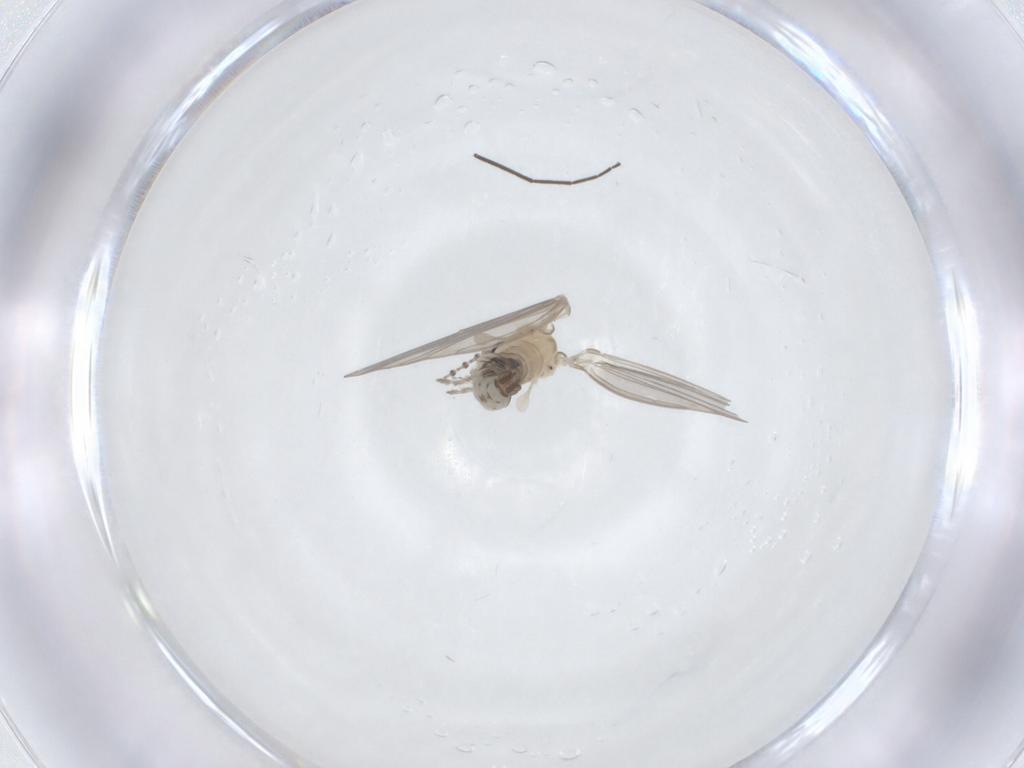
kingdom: Animalia
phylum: Arthropoda
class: Insecta
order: Diptera
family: Psychodidae
